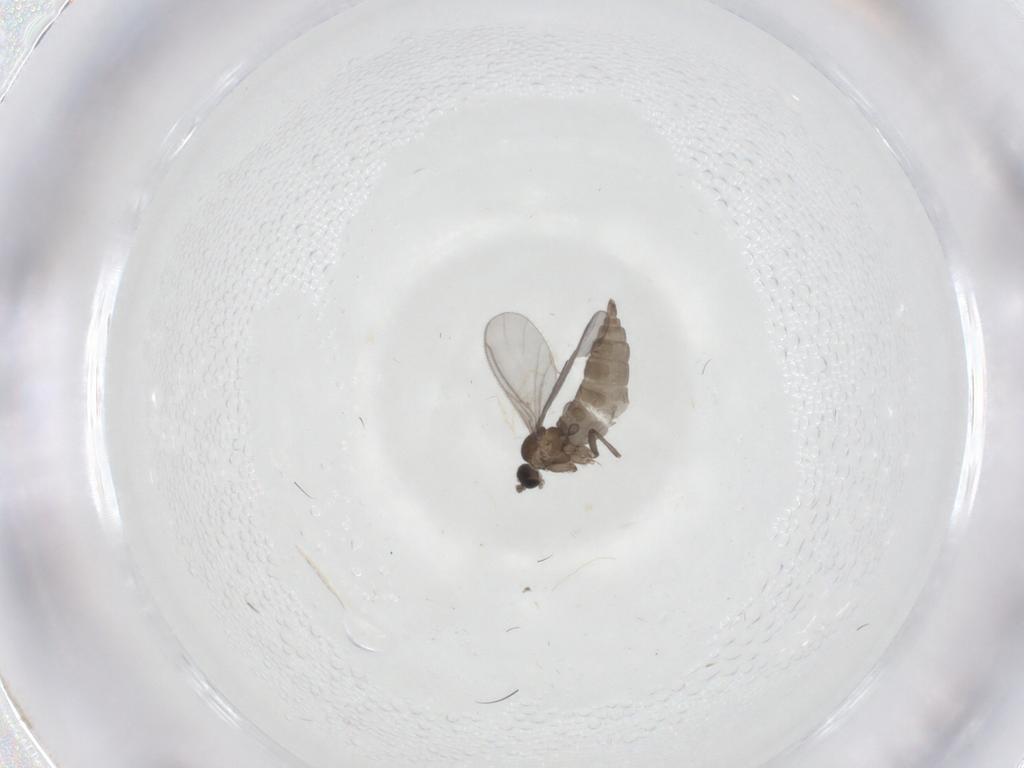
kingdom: Animalia
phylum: Arthropoda
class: Insecta
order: Diptera
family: Sciaridae
